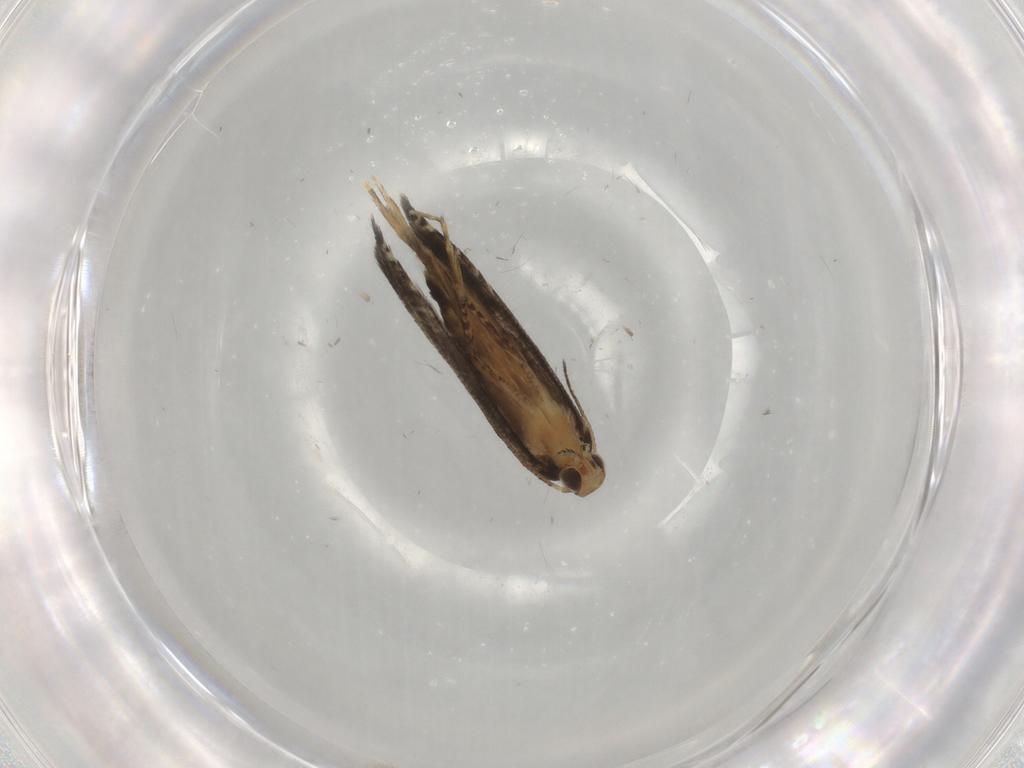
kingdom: Animalia
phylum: Arthropoda
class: Insecta
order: Lepidoptera
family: Glyphipterigidae
